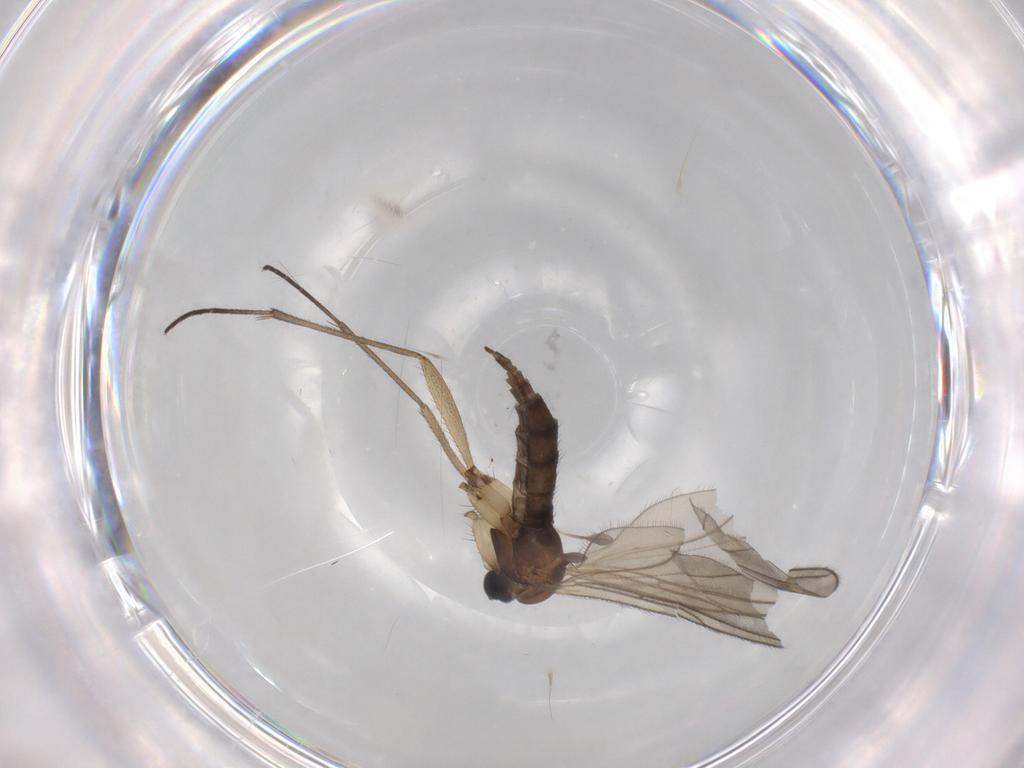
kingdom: Animalia
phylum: Arthropoda
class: Insecta
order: Diptera
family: Sciaridae
